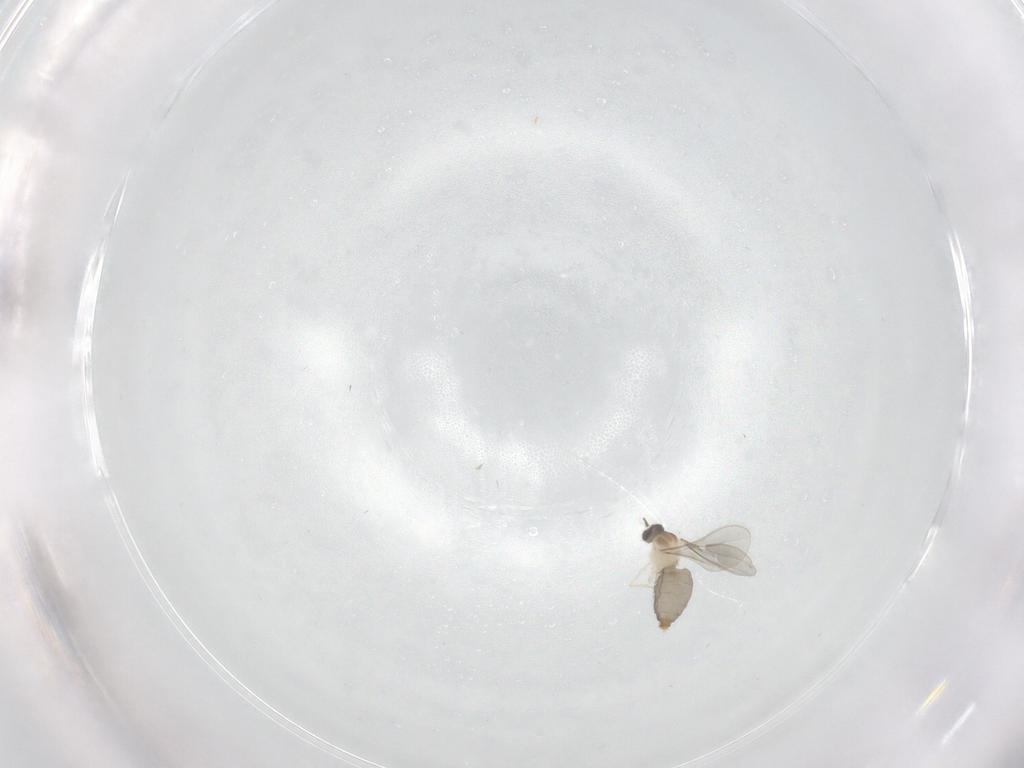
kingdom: Animalia
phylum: Arthropoda
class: Insecta
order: Diptera
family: Cecidomyiidae
